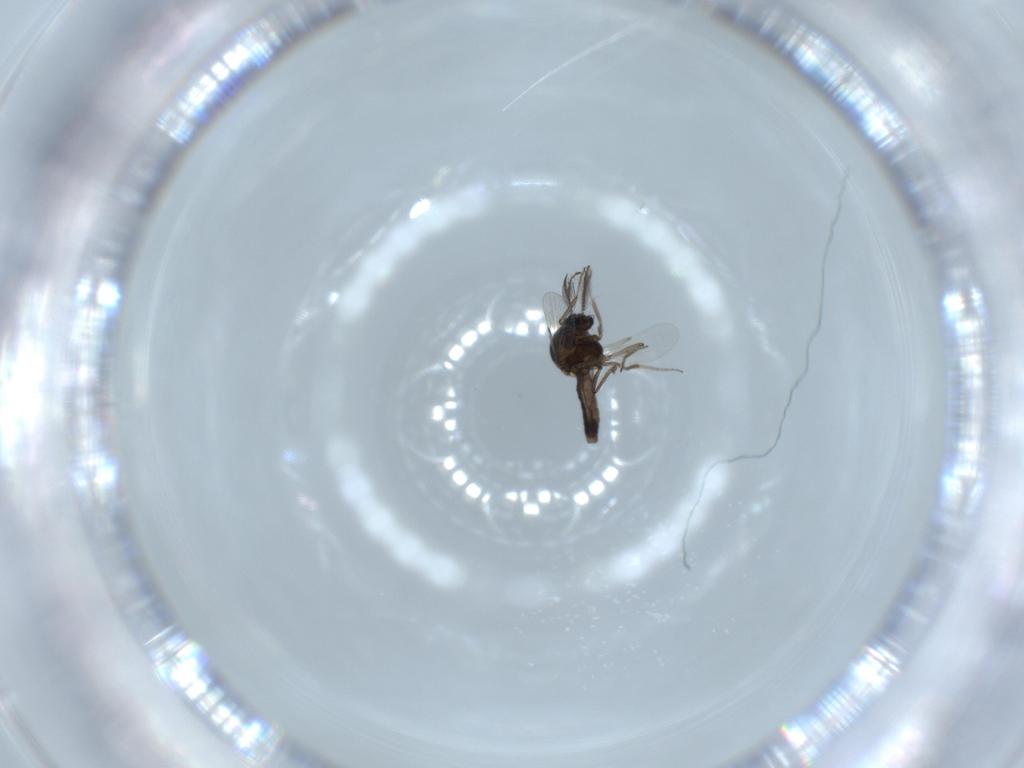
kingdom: Animalia
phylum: Arthropoda
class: Insecta
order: Diptera
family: Ceratopogonidae
